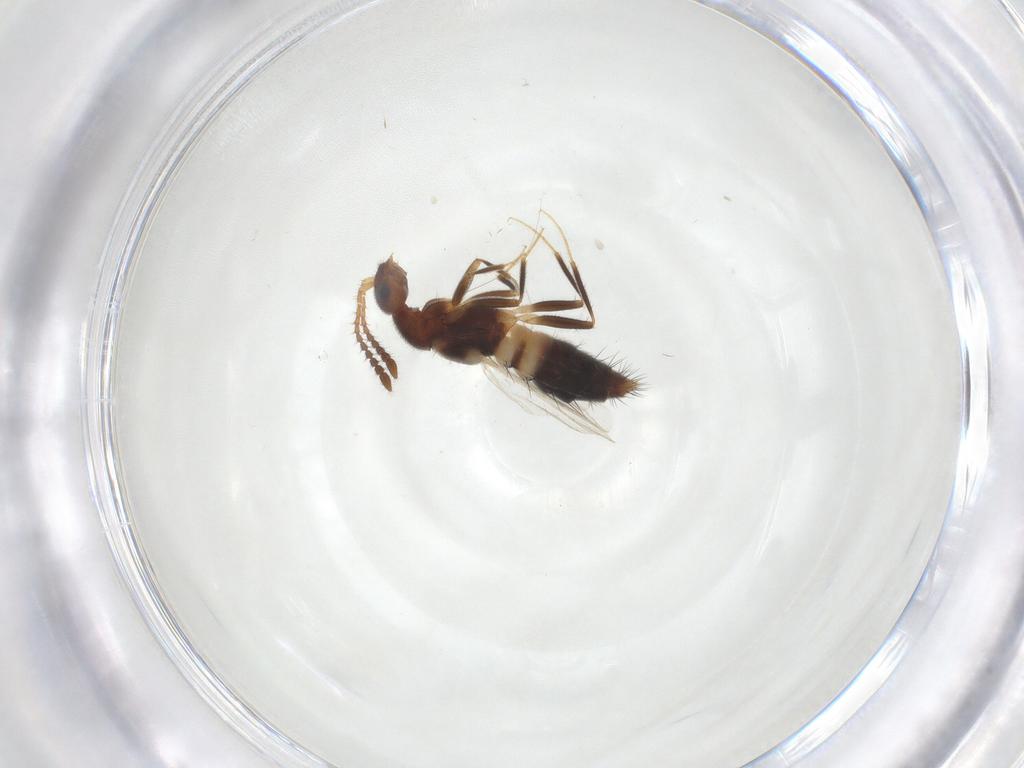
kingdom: Animalia
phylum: Arthropoda
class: Insecta
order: Coleoptera
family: Staphylinidae
